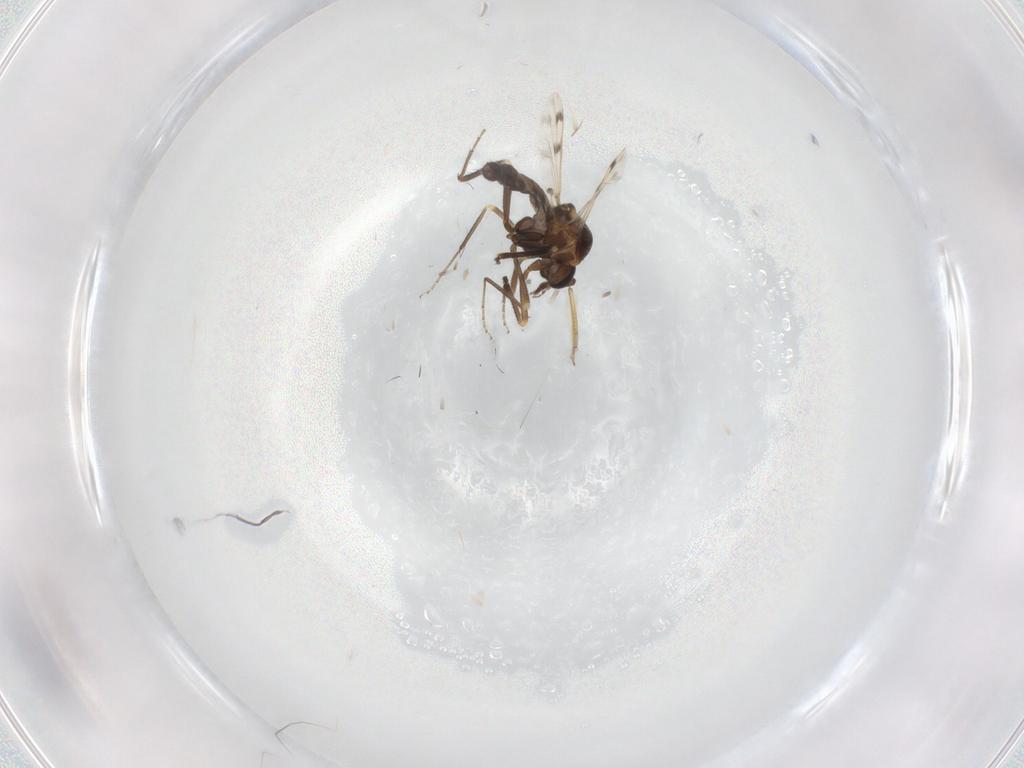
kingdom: Animalia
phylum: Arthropoda
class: Insecta
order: Diptera
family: Ceratopogonidae
